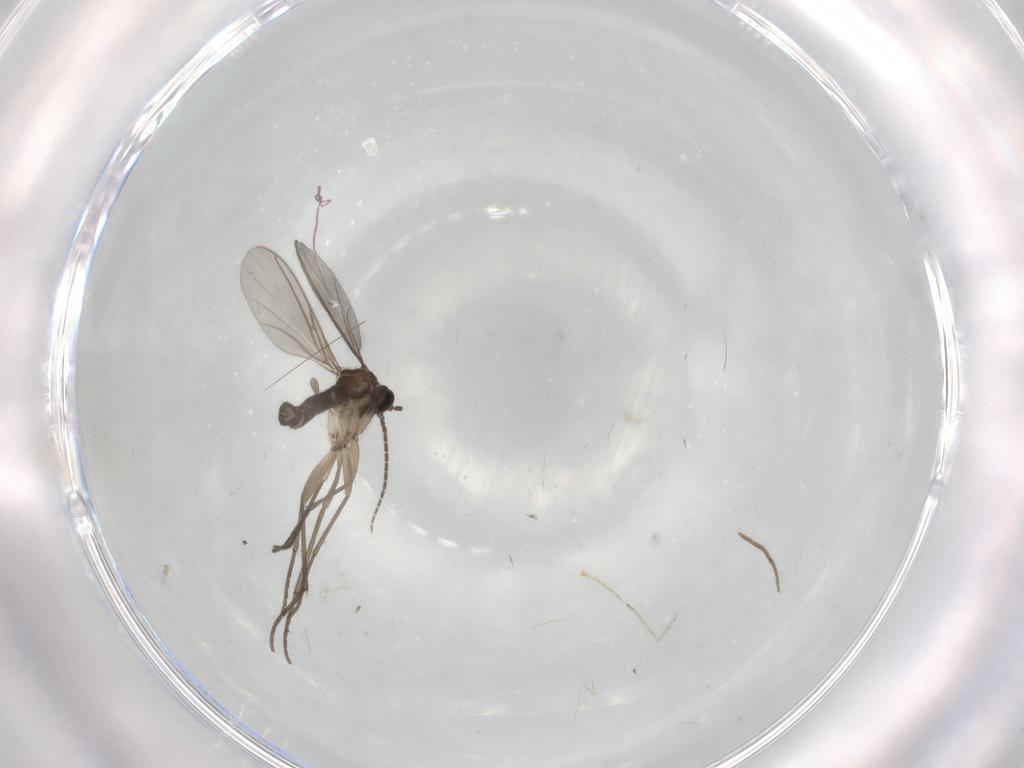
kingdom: Animalia
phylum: Arthropoda
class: Insecta
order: Diptera
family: Sciaridae
